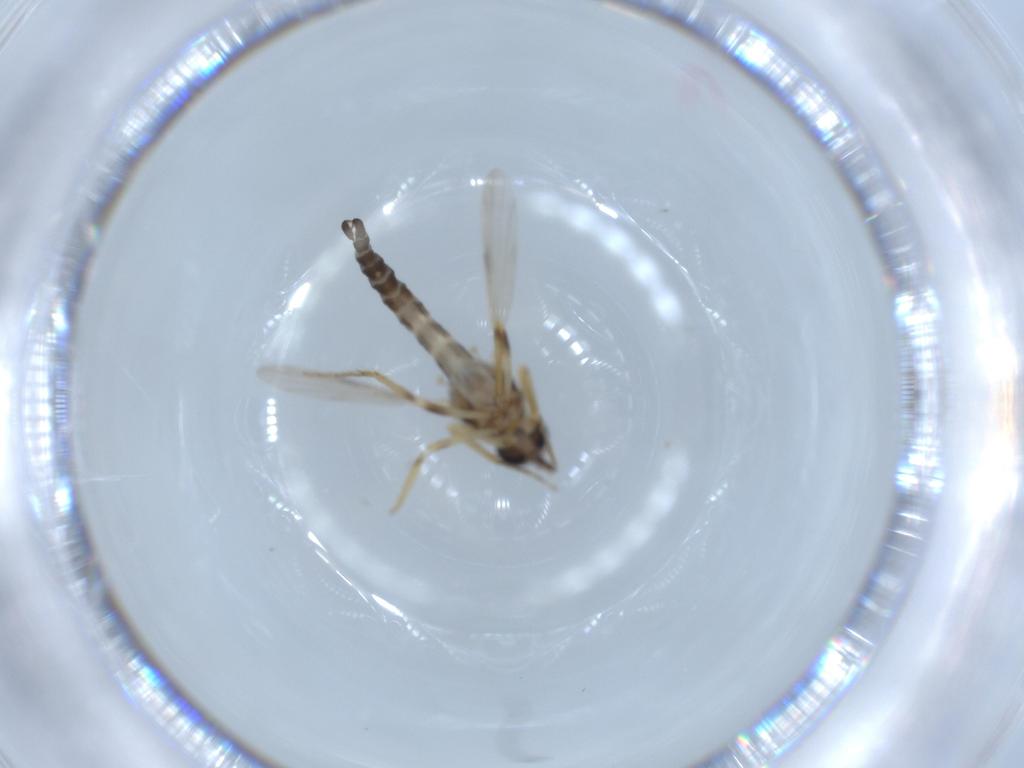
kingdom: Animalia
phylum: Arthropoda
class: Insecta
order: Diptera
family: Ceratopogonidae
